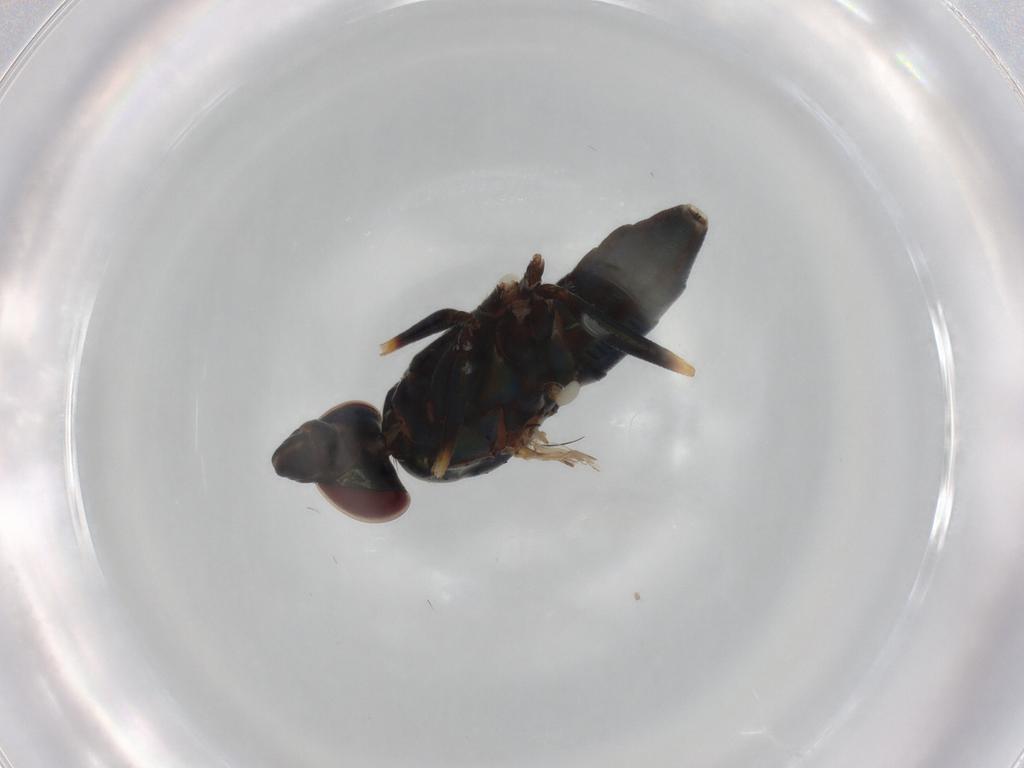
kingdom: Animalia
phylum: Arthropoda
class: Insecta
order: Diptera
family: Dolichopodidae
